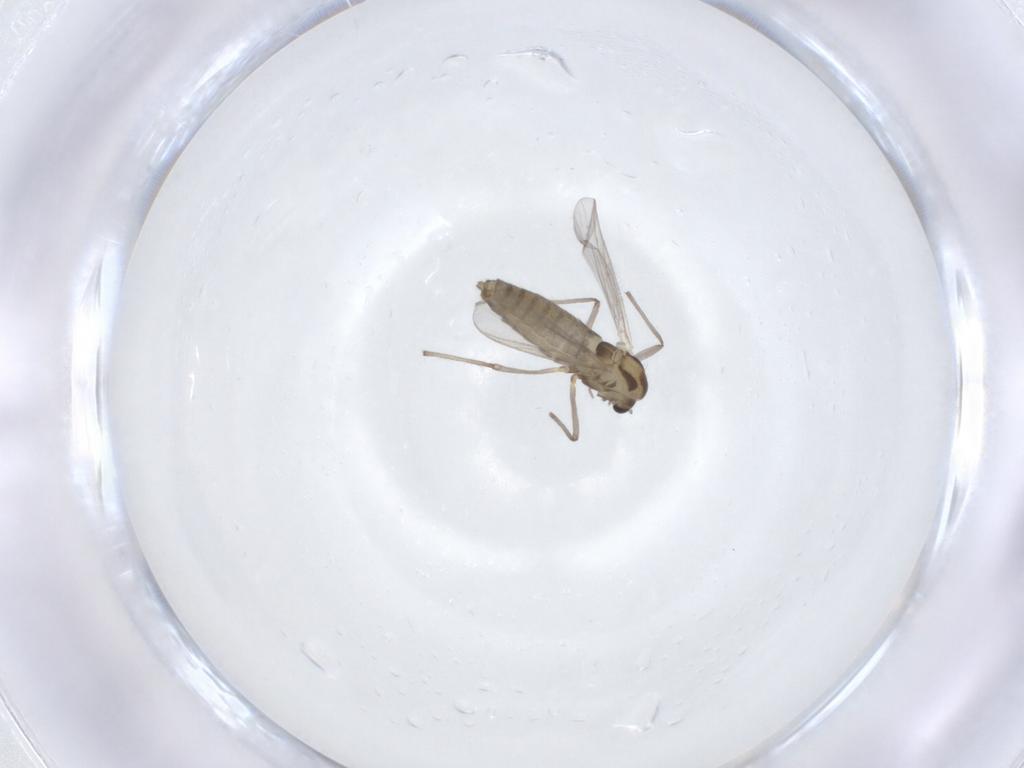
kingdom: Animalia
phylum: Arthropoda
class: Insecta
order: Diptera
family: Chironomidae
